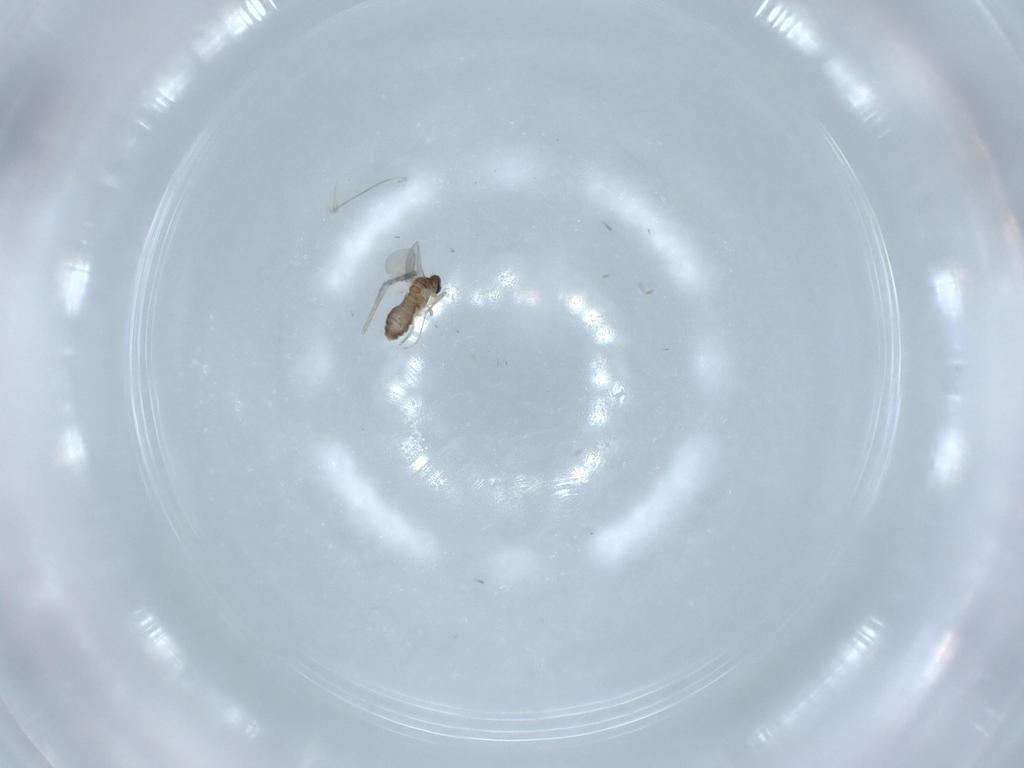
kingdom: Animalia
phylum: Arthropoda
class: Insecta
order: Diptera
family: Cecidomyiidae
